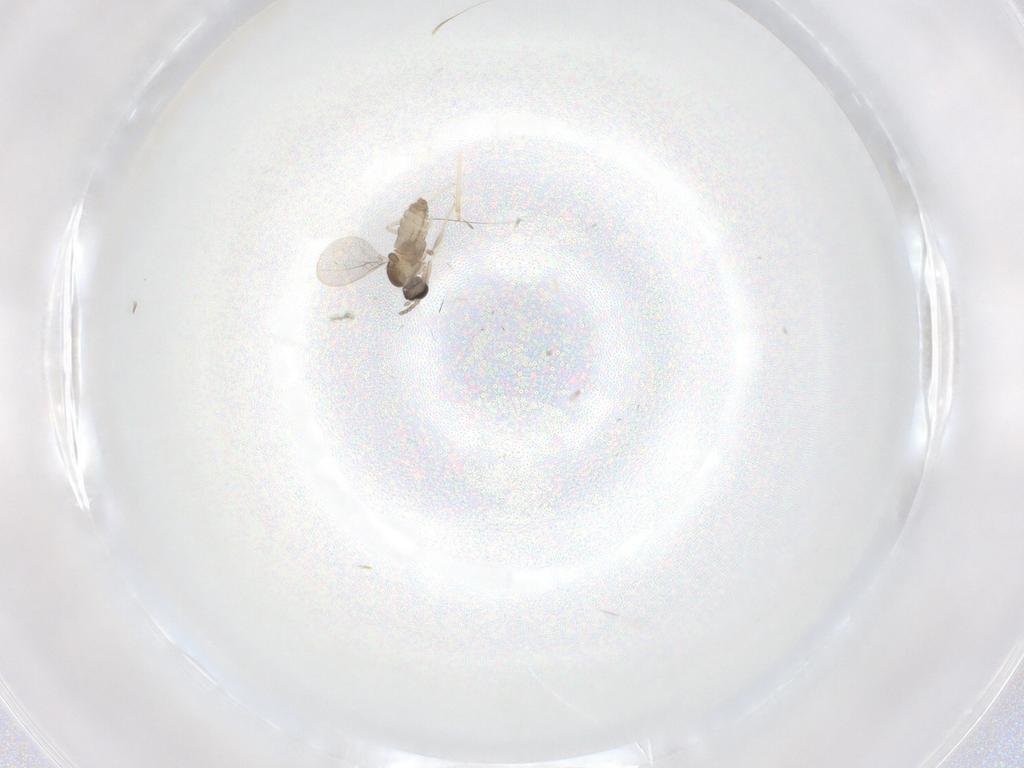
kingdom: Animalia
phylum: Arthropoda
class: Insecta
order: Diptera
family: Cecidomyiidae
